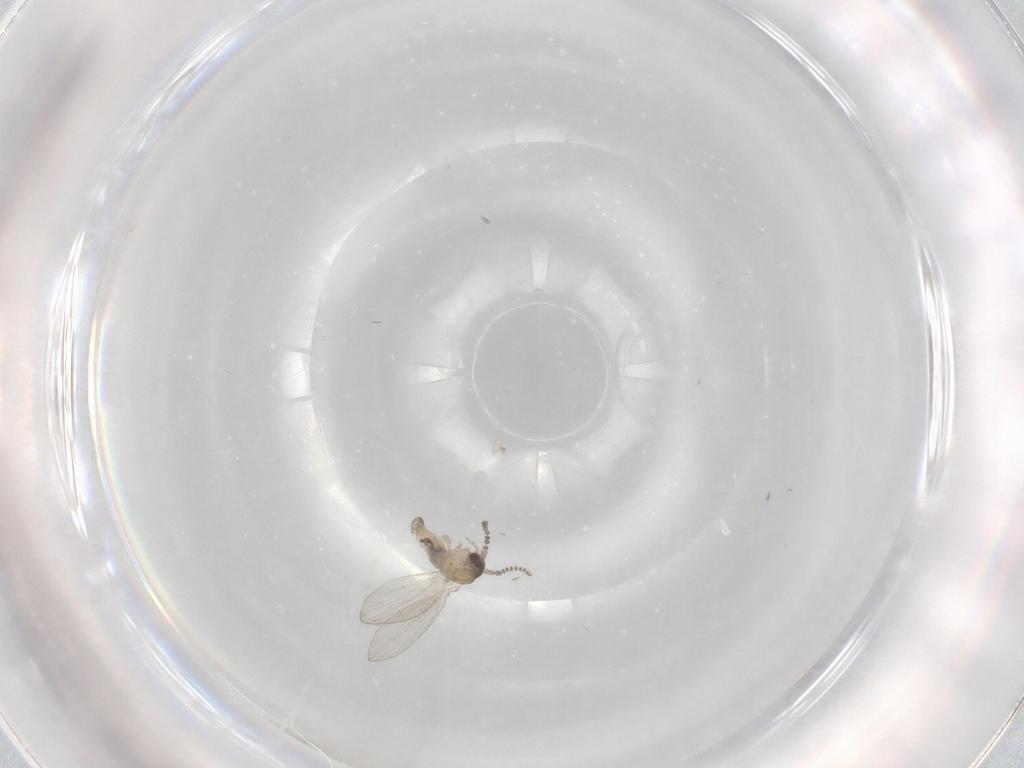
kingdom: Animalia
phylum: Arthropoda
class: Insecta
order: Diptera
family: Psychodidae
